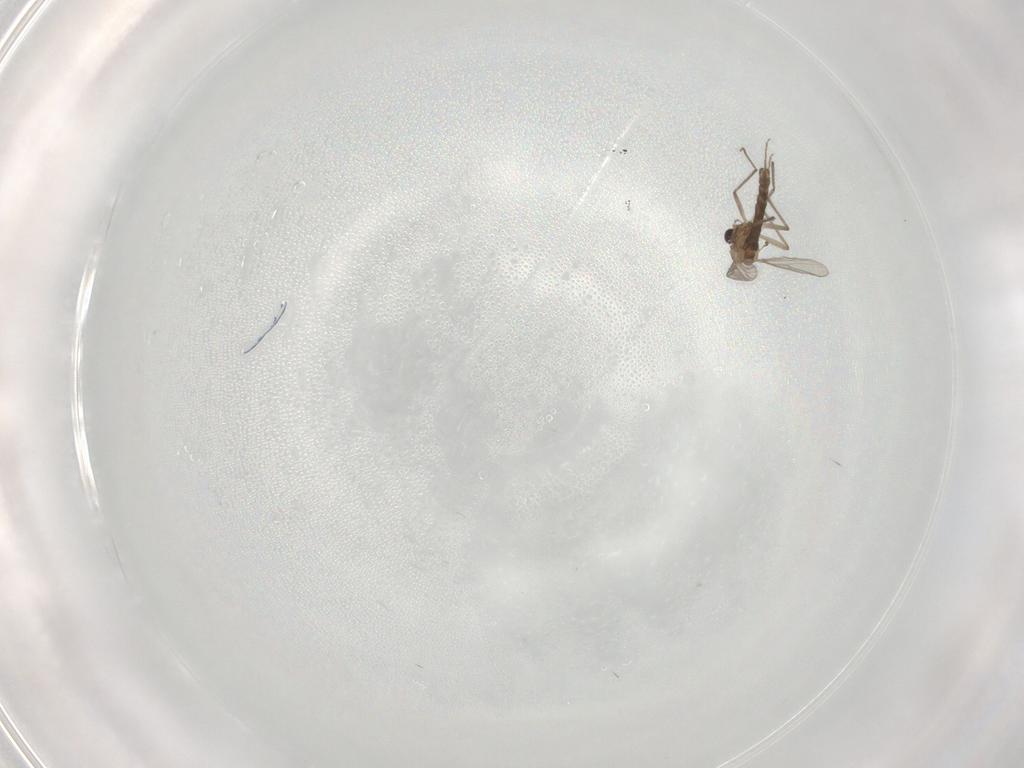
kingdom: Animalia
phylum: Arthropoda
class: Insecta
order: Diptera
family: Chironomidae
